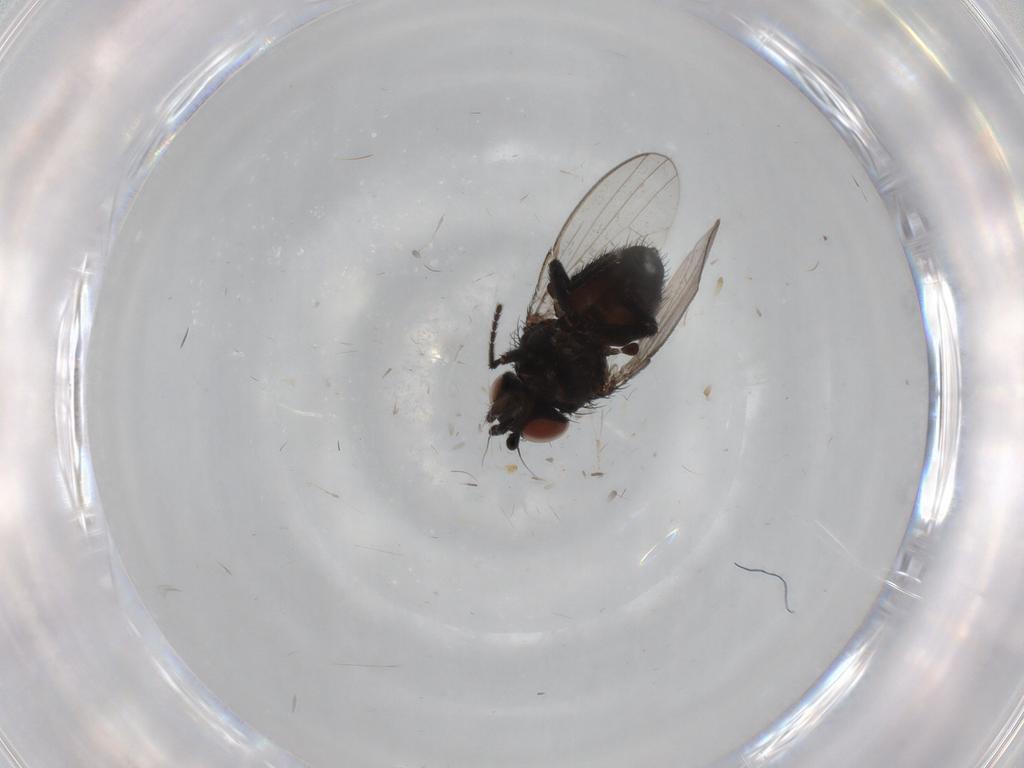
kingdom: Animalia
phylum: Arthropoda
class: Insecta
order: Diptera
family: Milichiidae
